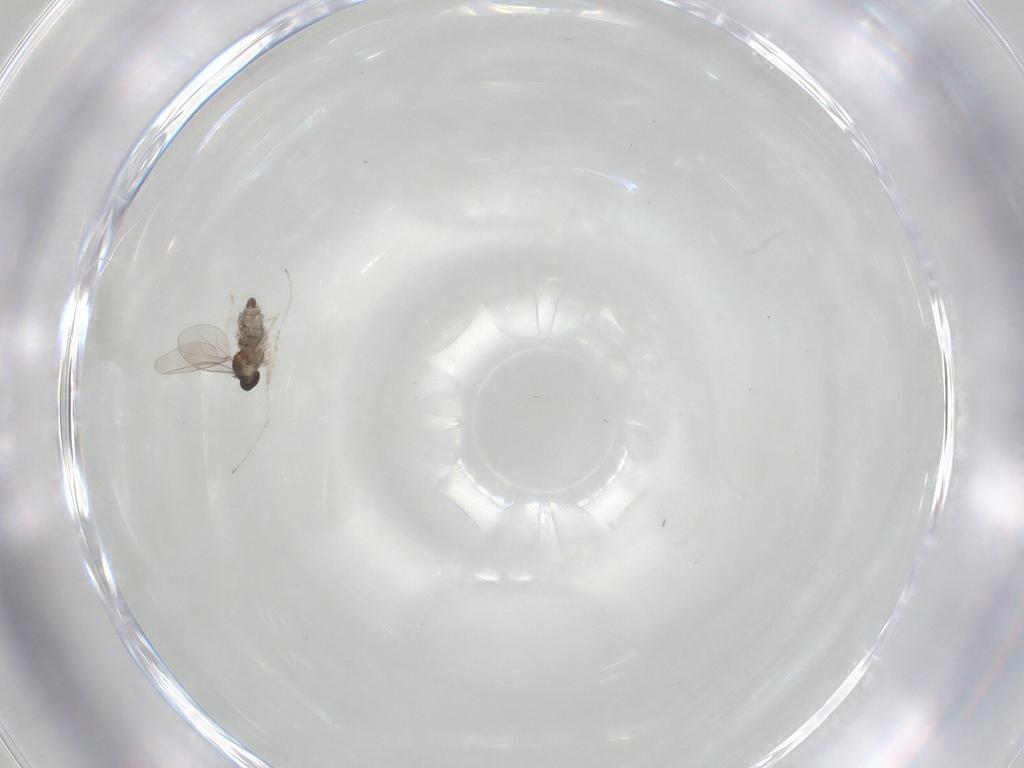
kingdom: Animalia
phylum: Arthropoda
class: Insecta
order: Diptera
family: Cecidomyiidae
